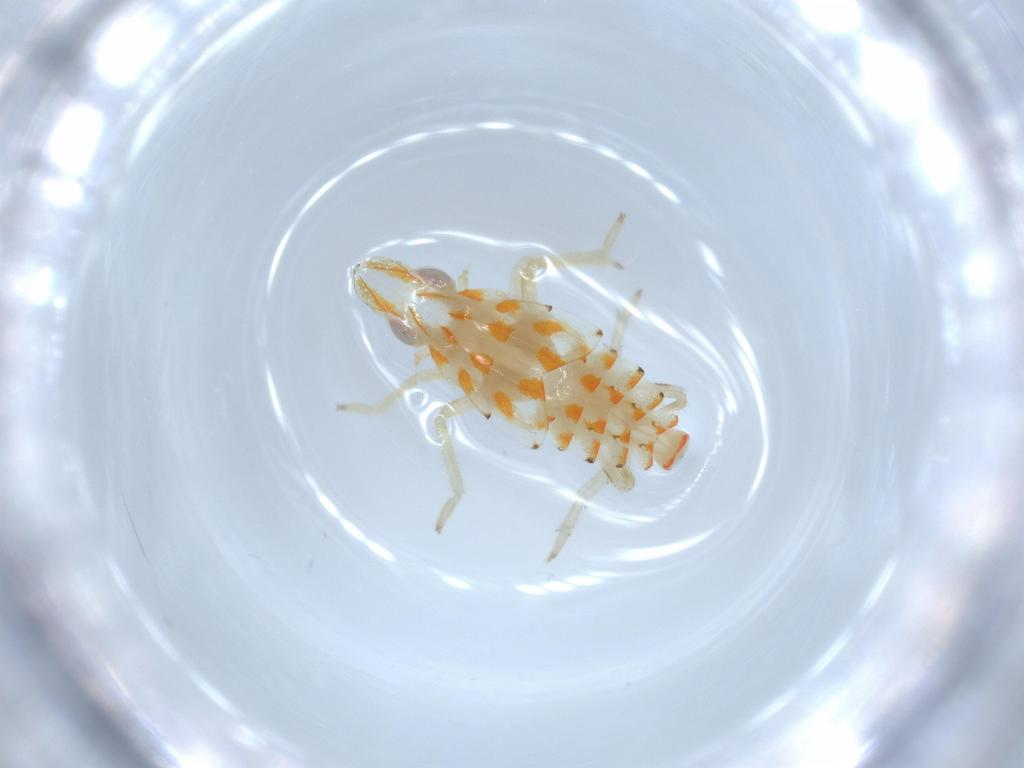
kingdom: Animalia
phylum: Arthropoda
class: Insecta
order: Hemiptera
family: Tropiduchidae
